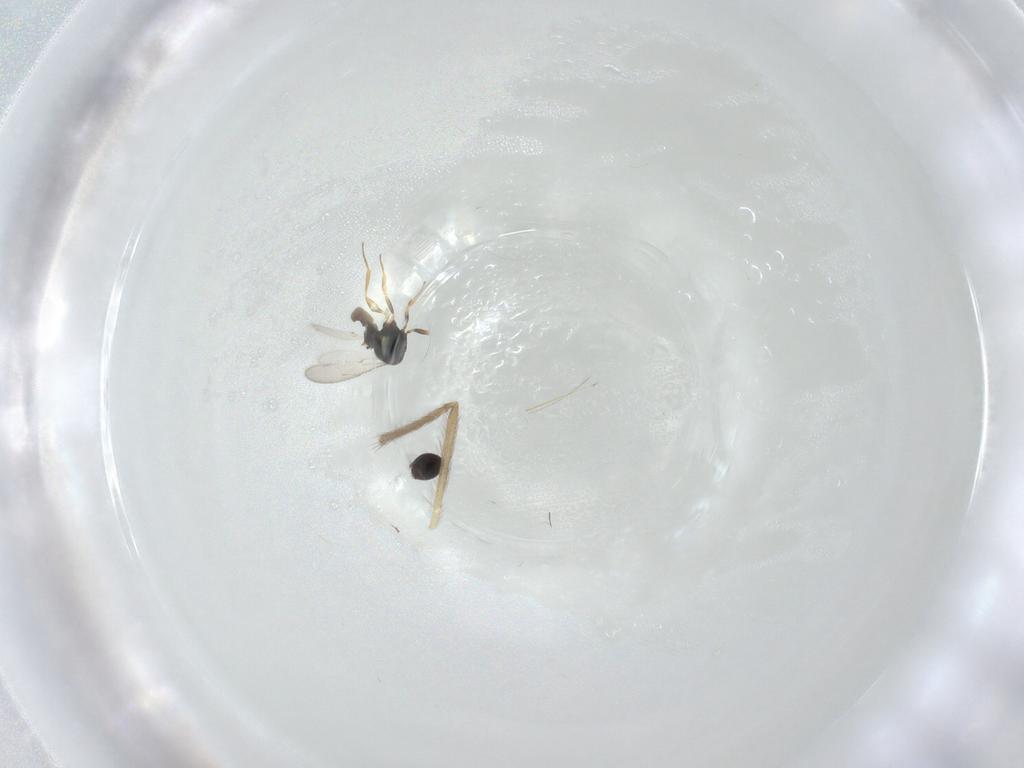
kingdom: Animalia
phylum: Arthropoda
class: Insecta
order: Hymenoptera
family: Scelionidae
